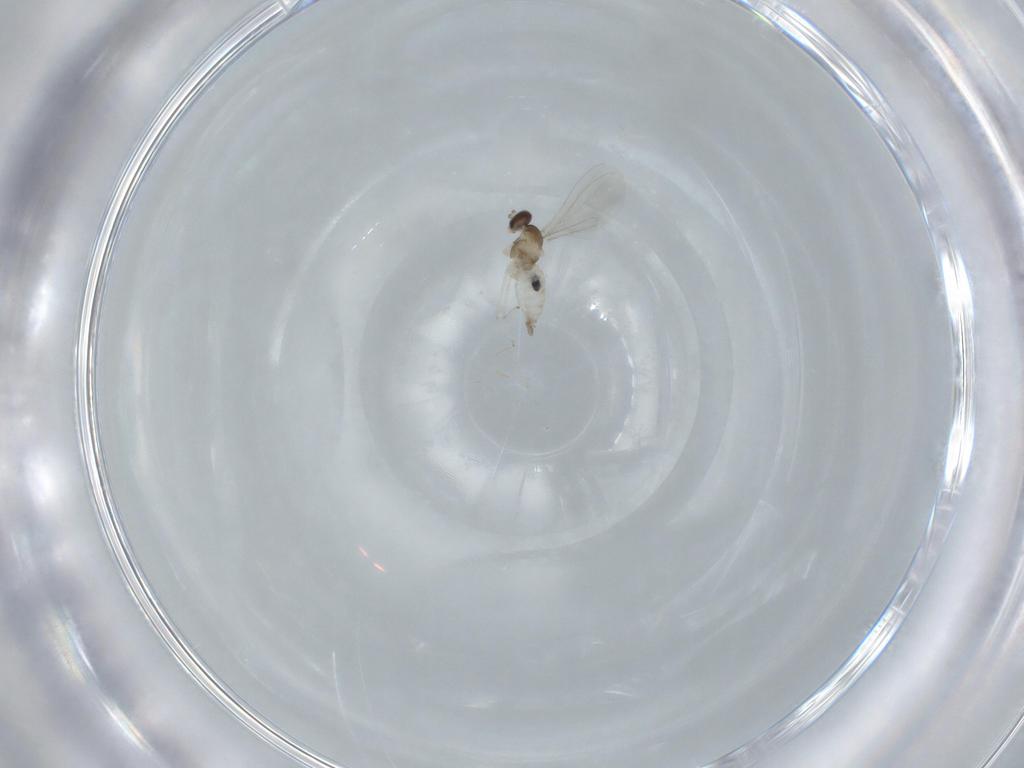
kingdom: Animalia
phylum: Arthropoda
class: Insecta
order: Diptera
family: Cecidomyiidae
